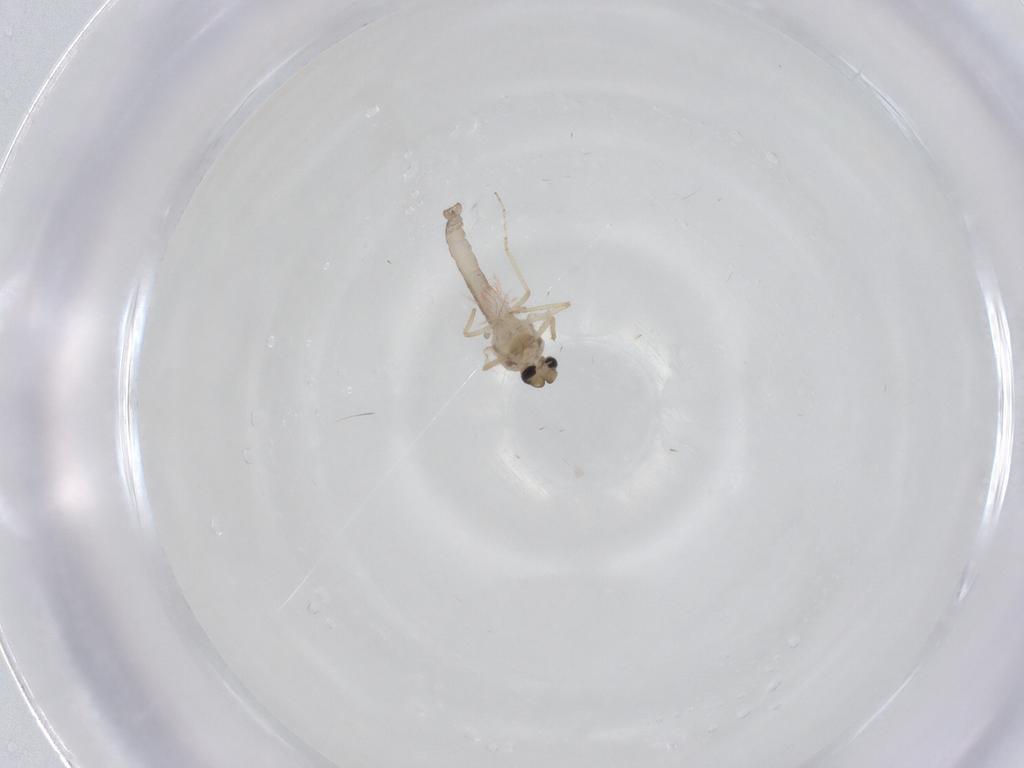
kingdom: Animalia
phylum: Arthropoda
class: Insecta
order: Diptera
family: Ceratopogonidae
